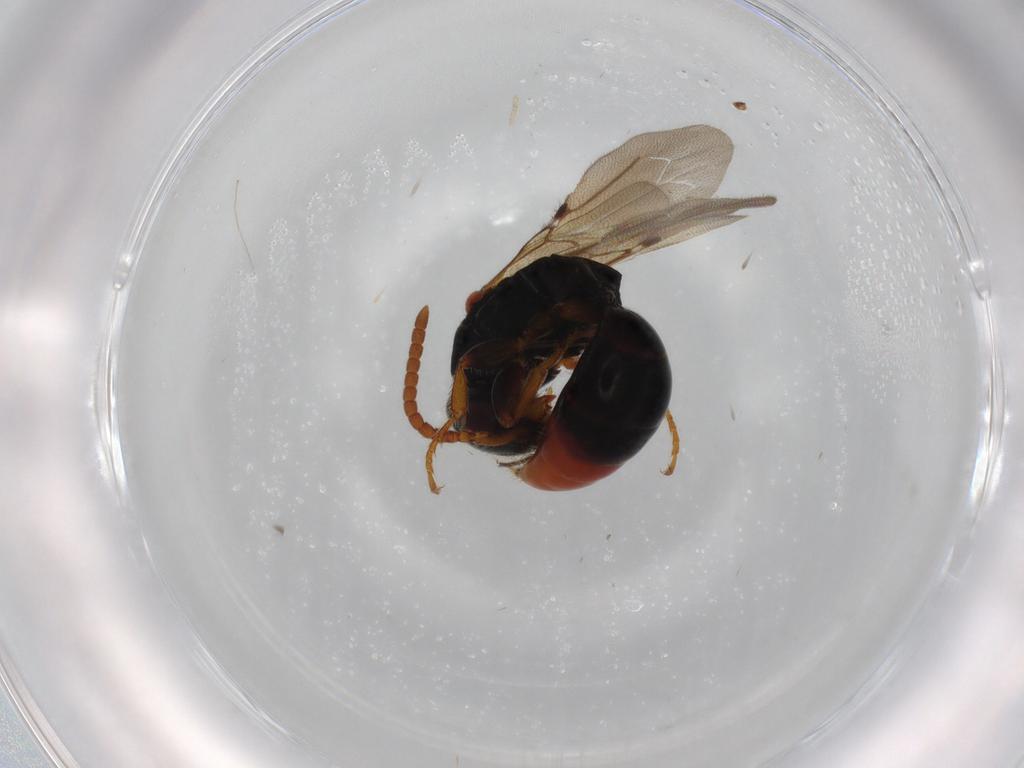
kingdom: Animalia
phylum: Arthropoda
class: Insecta
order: Hymenoptera
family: Bethylidae
